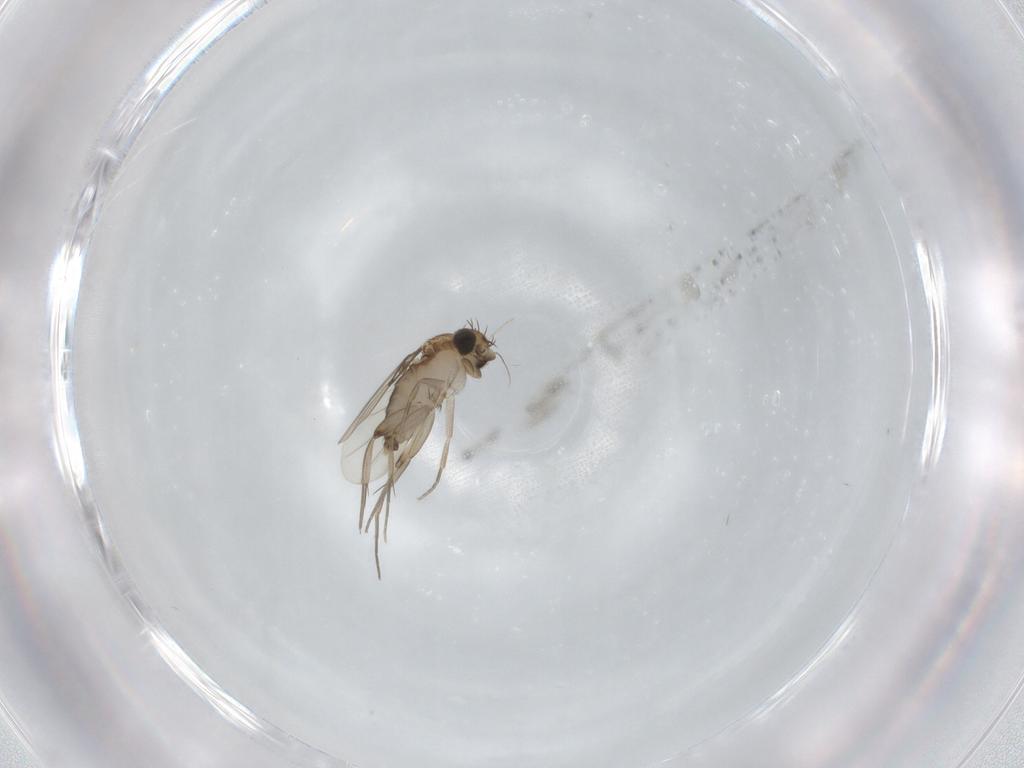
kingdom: Animalia
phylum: Arthropoda
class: Insecta
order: Diptera
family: Phoridae
